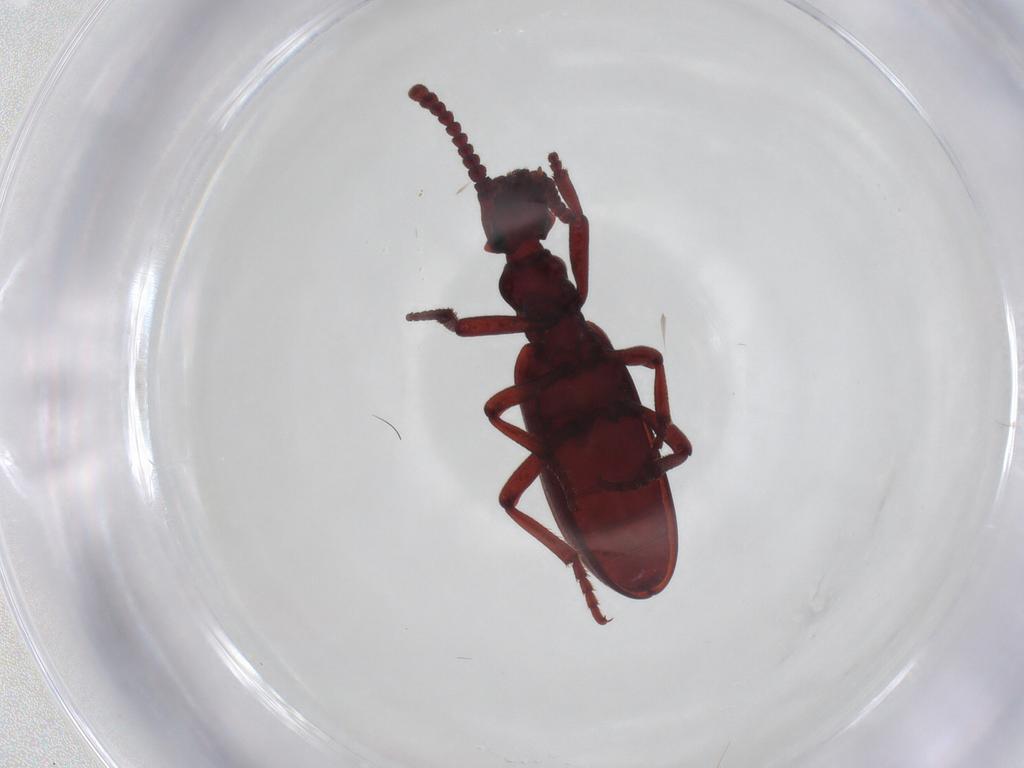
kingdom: Animalia
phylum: Arthropoda
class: Insecta
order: Coleoptera
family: Anthicidae
